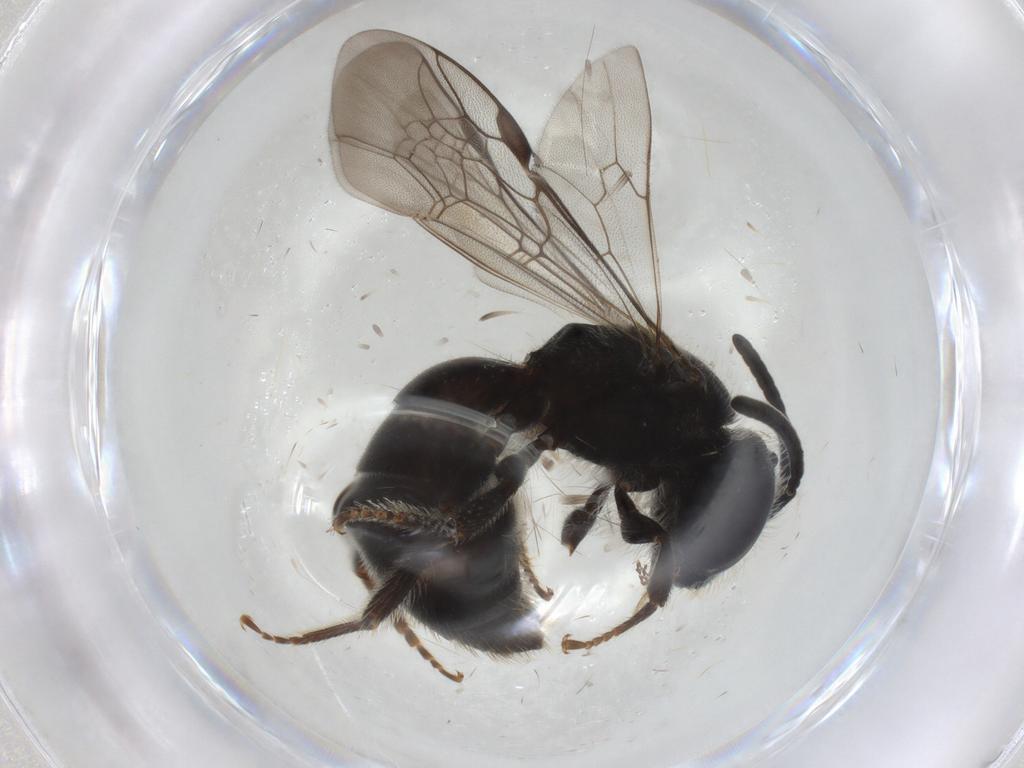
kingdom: Animalia
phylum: Arthropoda
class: Insecta
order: Hymenoptera
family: Halictidae
